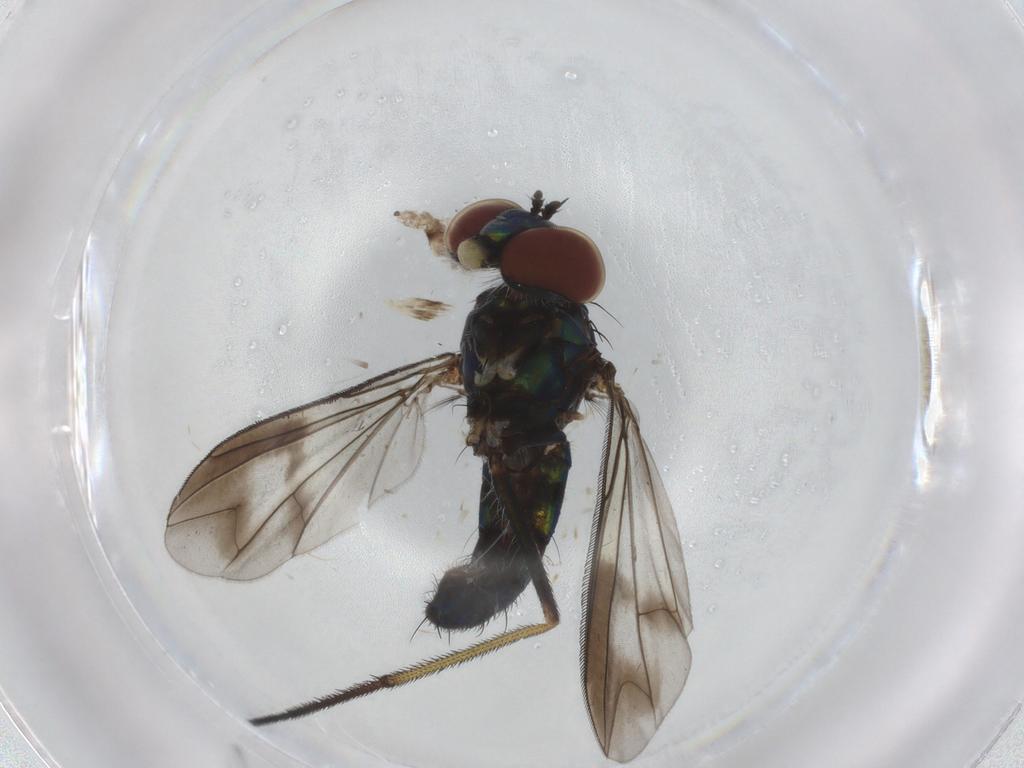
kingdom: Animalia
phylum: Arthropoda
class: Insecta
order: Diptera
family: Dolichopodidae
